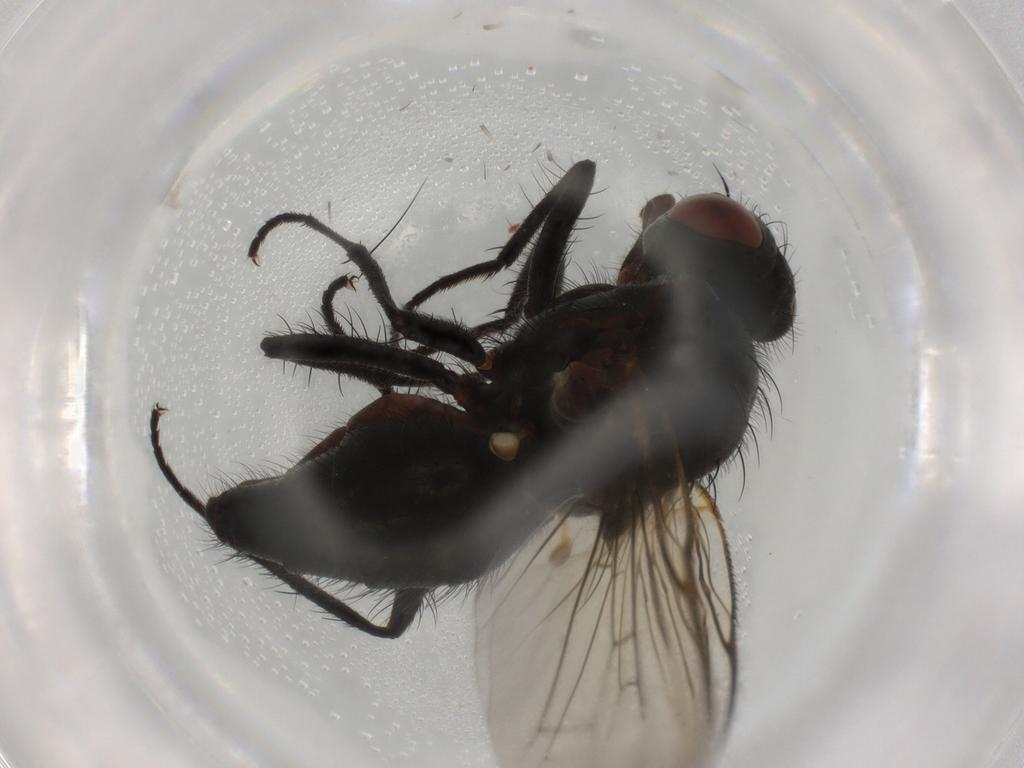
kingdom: Animalia
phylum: Arthropoda
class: Insecta
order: Diptera
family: Anthomyiidae
